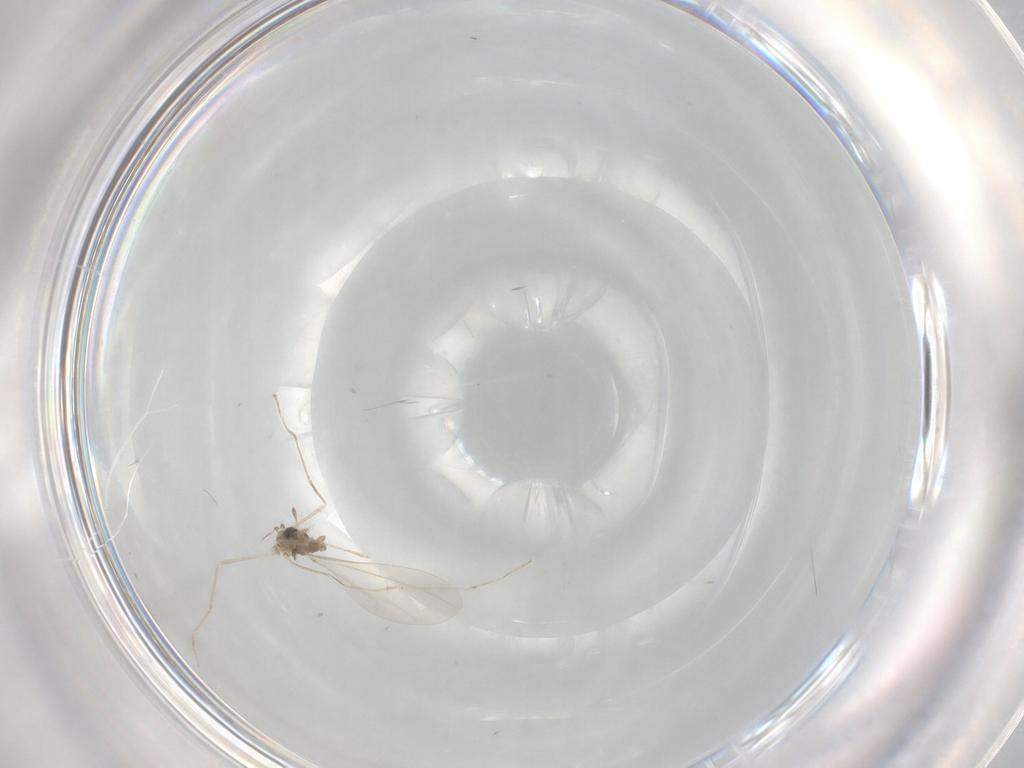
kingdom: Animalia
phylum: Arthropoda
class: Insecta
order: Diptera
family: Cecidomyiidae
